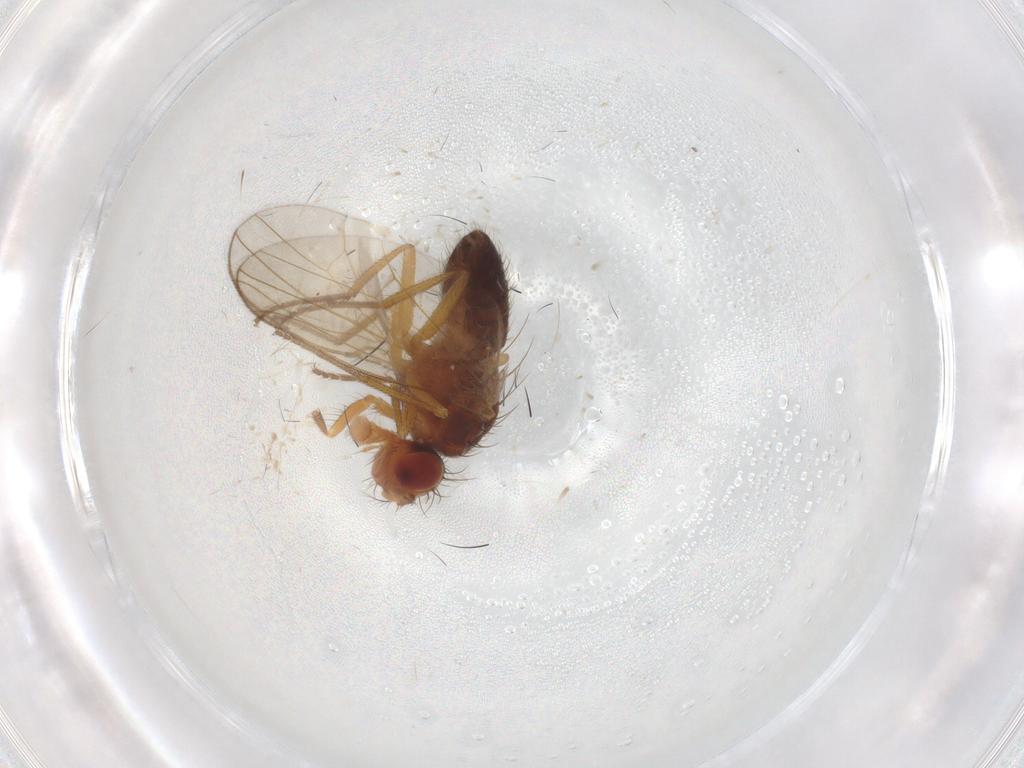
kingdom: Animalia
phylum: Arthropoda
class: Insecta
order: Diptera
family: Drosophilidae
